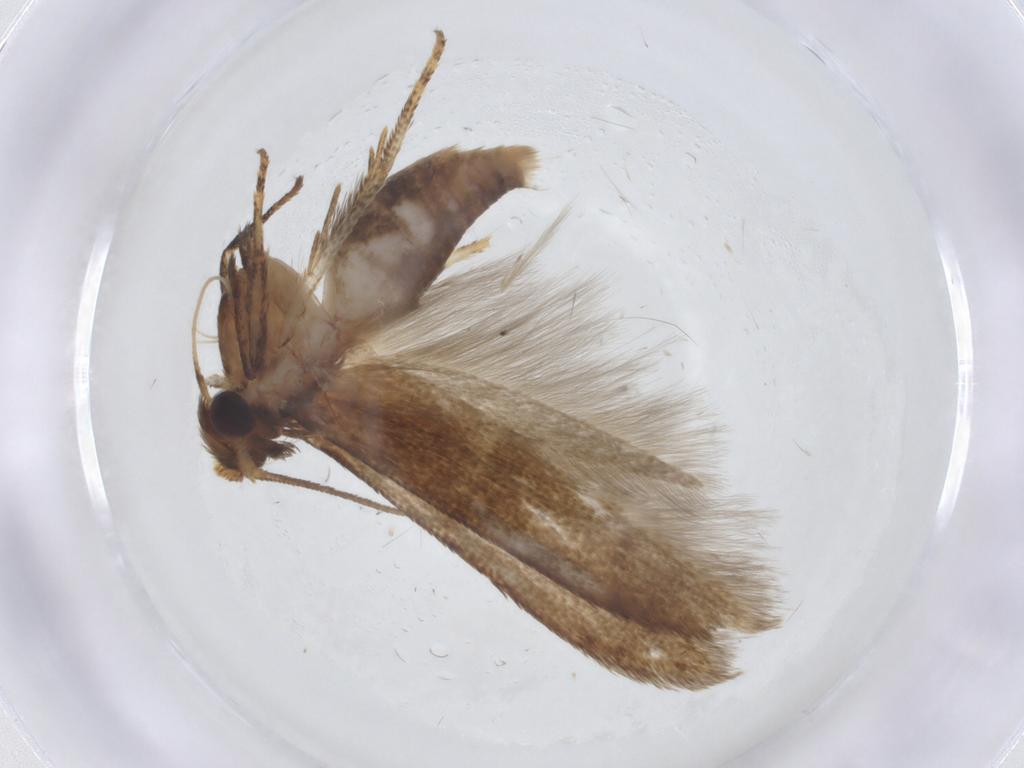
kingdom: Animalia
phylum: Arthropoda
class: Insecta
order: Lepidoptera
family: Blastobasidae
